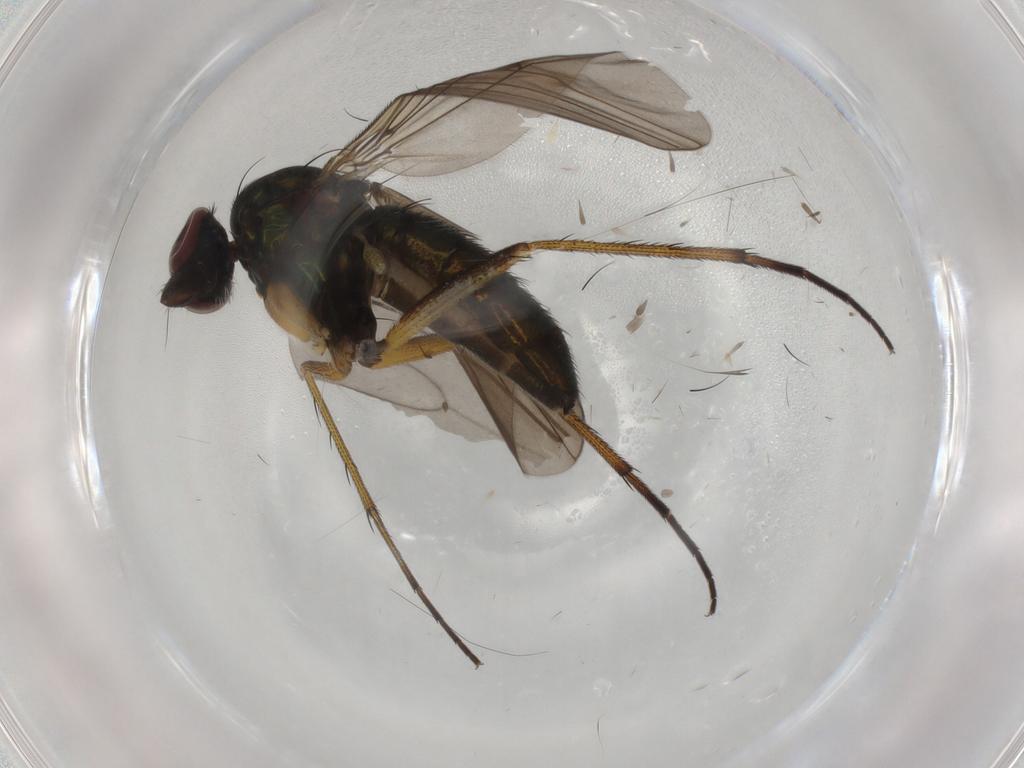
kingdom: Animalia
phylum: Arthropoda
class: Insecta
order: Diptera
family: Dolichopodidae
